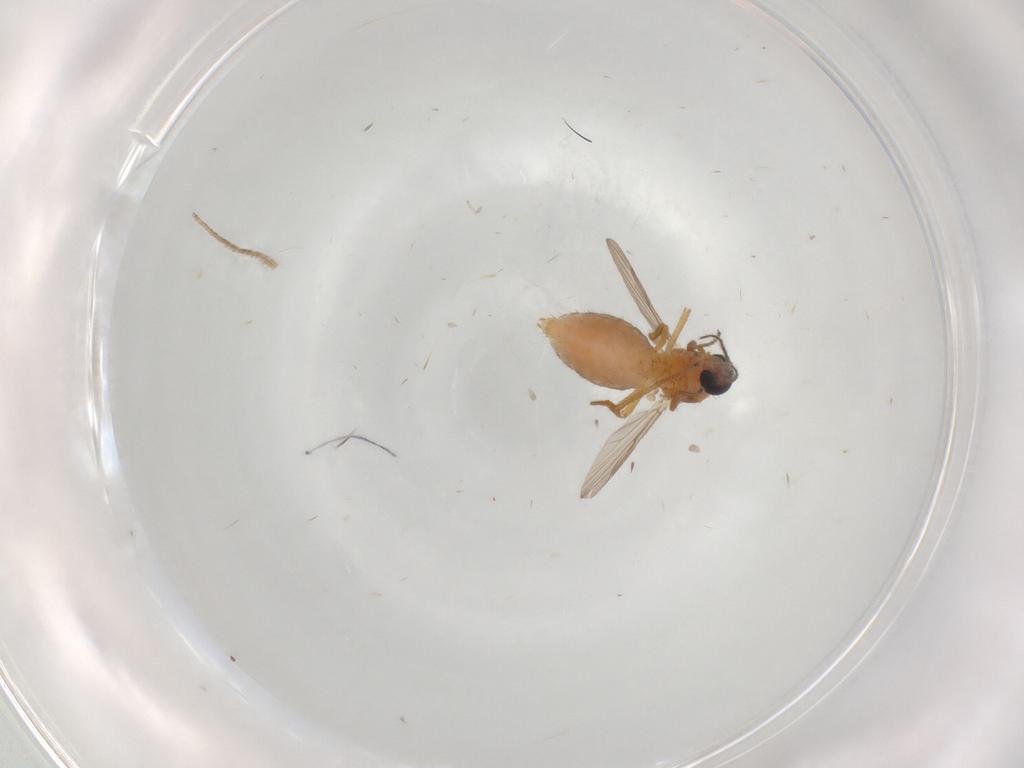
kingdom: Animalia
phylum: Arthropoda
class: Insecta
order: Diptera
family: Ceratopogonidae
